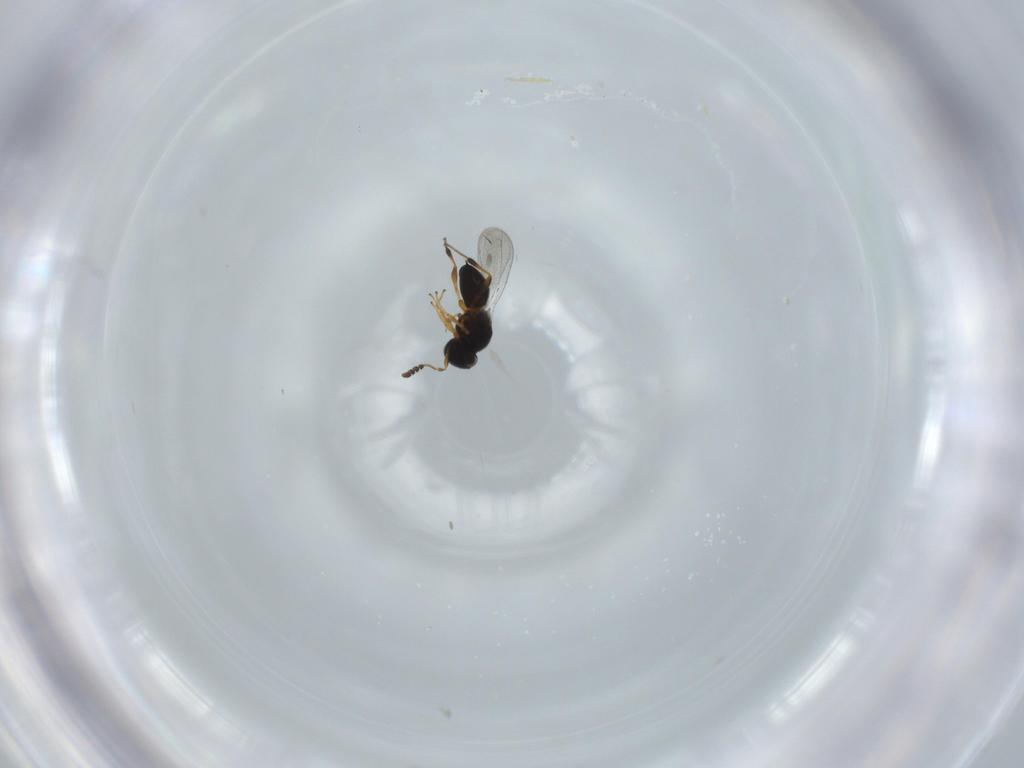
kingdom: Animalia
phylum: Arthropoda
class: Insecta
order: Hymenoptera
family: Platygastridae
